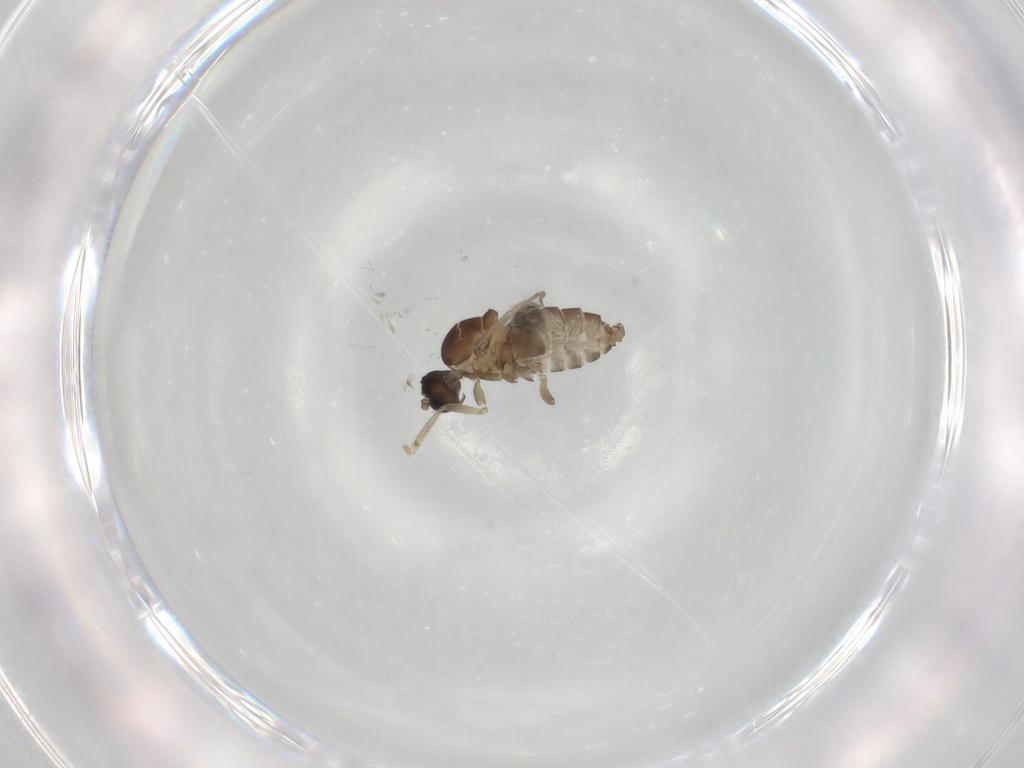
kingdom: Animalia
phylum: Arthropoda
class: Insecta
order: Diptera
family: Cecidomyiidae
